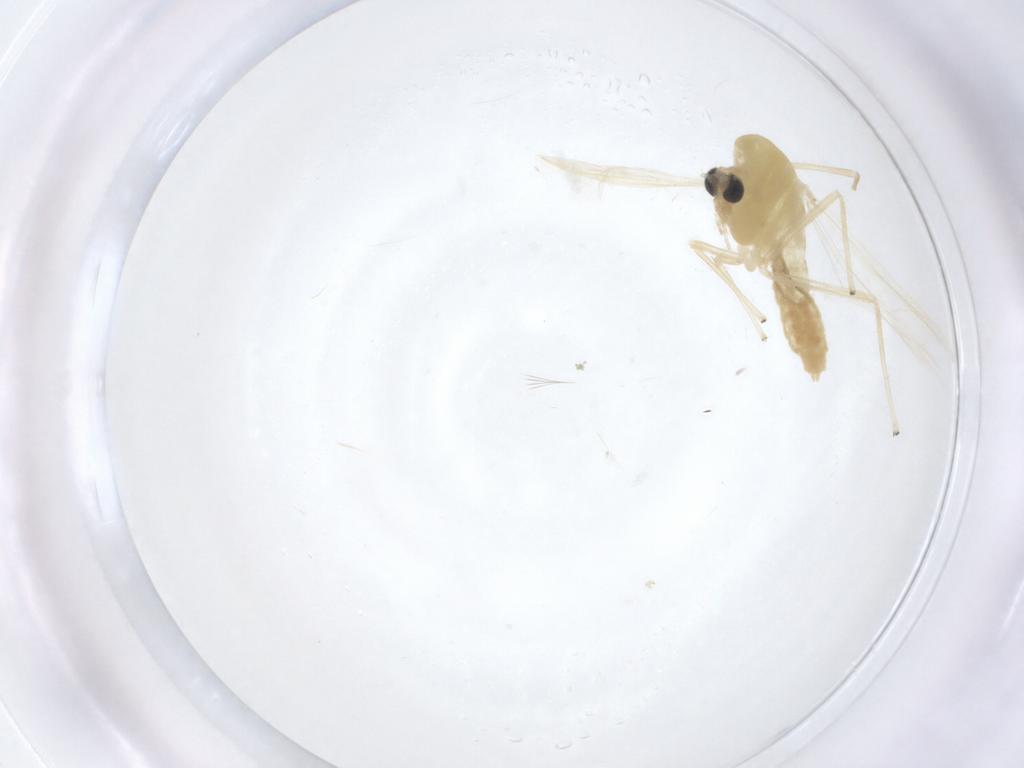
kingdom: Animalia
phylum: Arthropoda
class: Insecta
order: Diptera
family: Chironomidae
